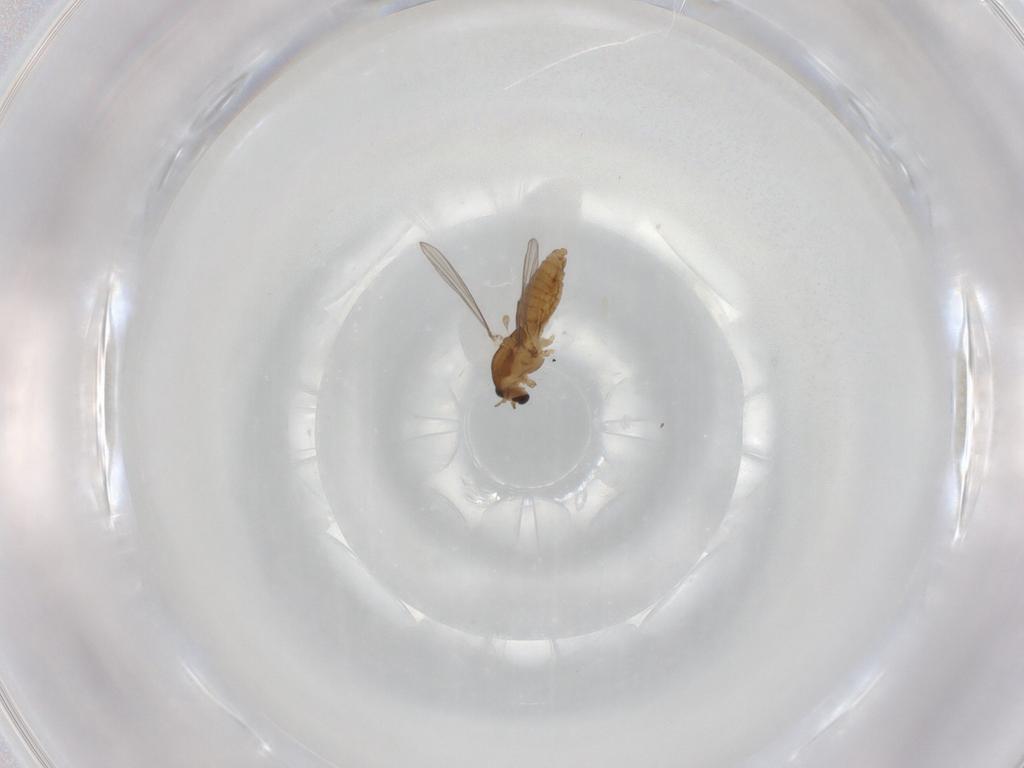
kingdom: Animalia
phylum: Arthropoda
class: Insecta
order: Diptera
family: Chironomidae
